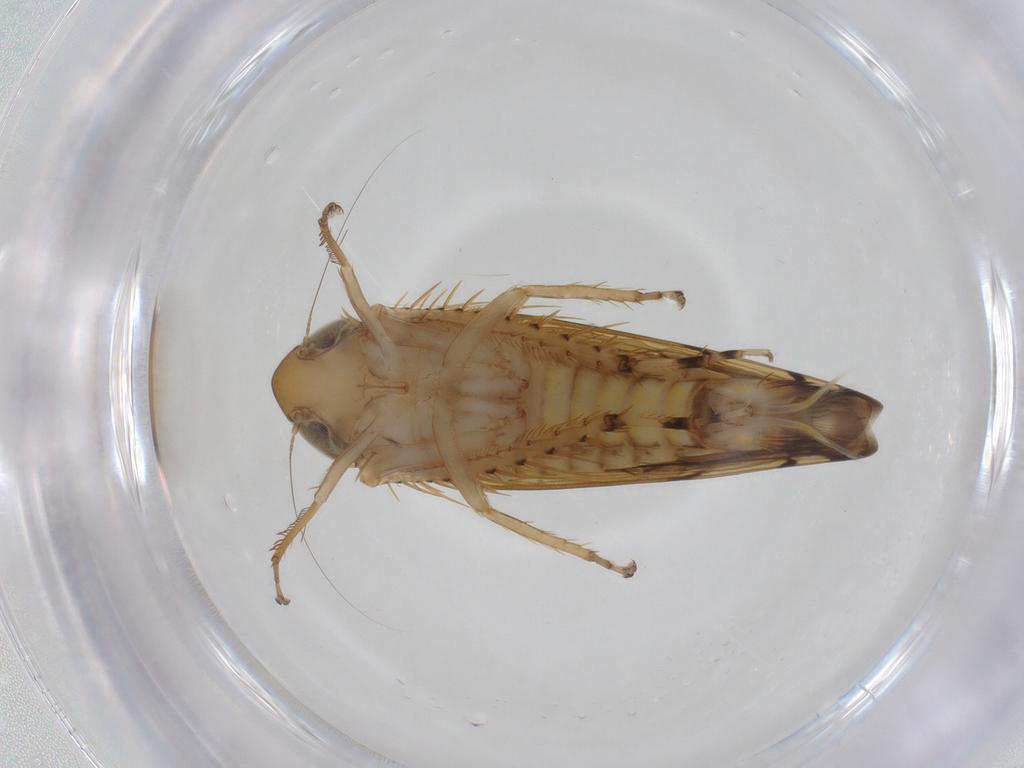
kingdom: Animalia
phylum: Arthropoda
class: Insecta
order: Hemiptera
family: Cicadellidae
